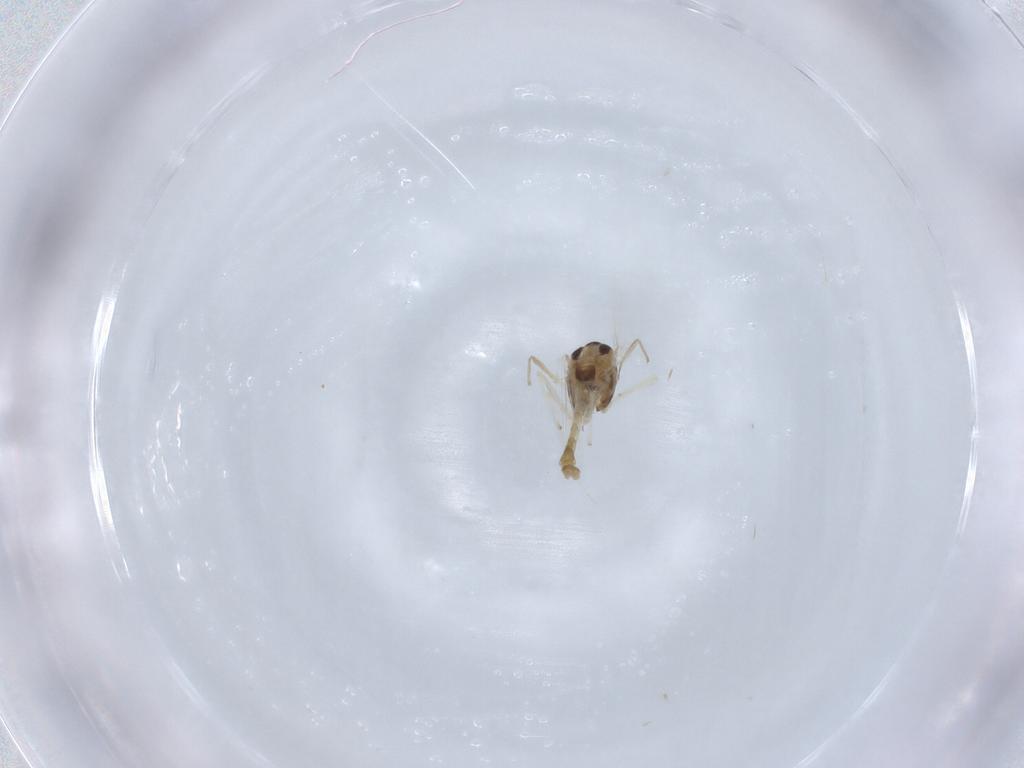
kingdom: Animalia
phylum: Arthropoda
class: Insecta
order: Diptera
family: Chironomidae
